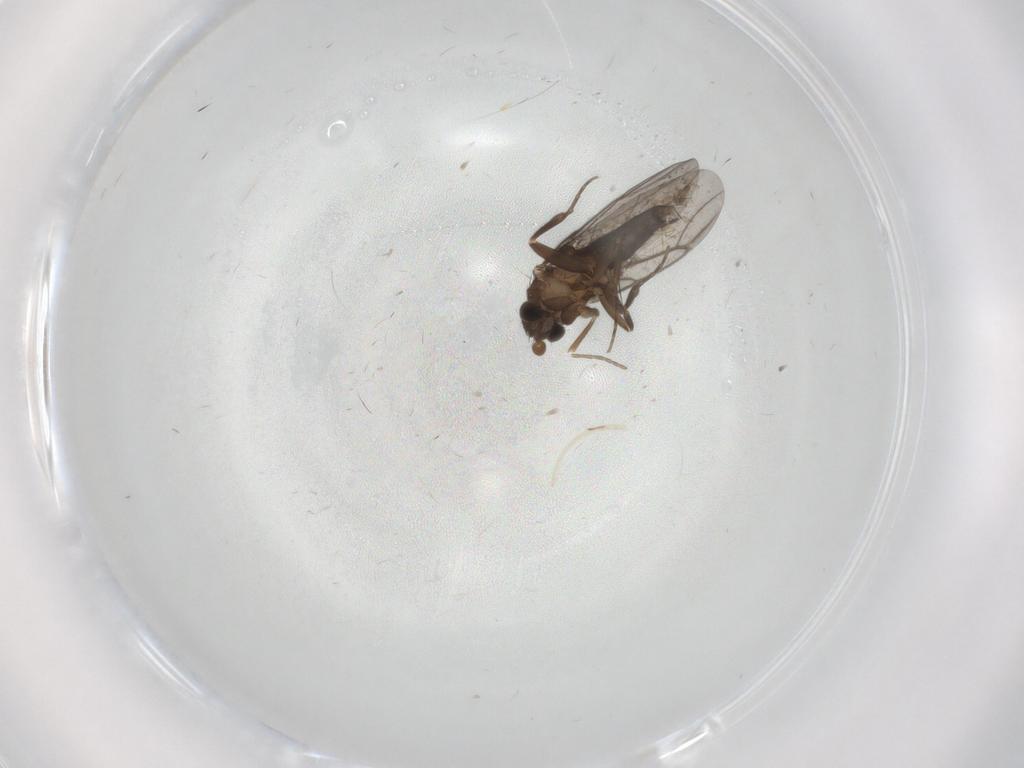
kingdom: Animalia
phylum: Arthropoda
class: Insecta
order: Diptera
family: Sciaridae
